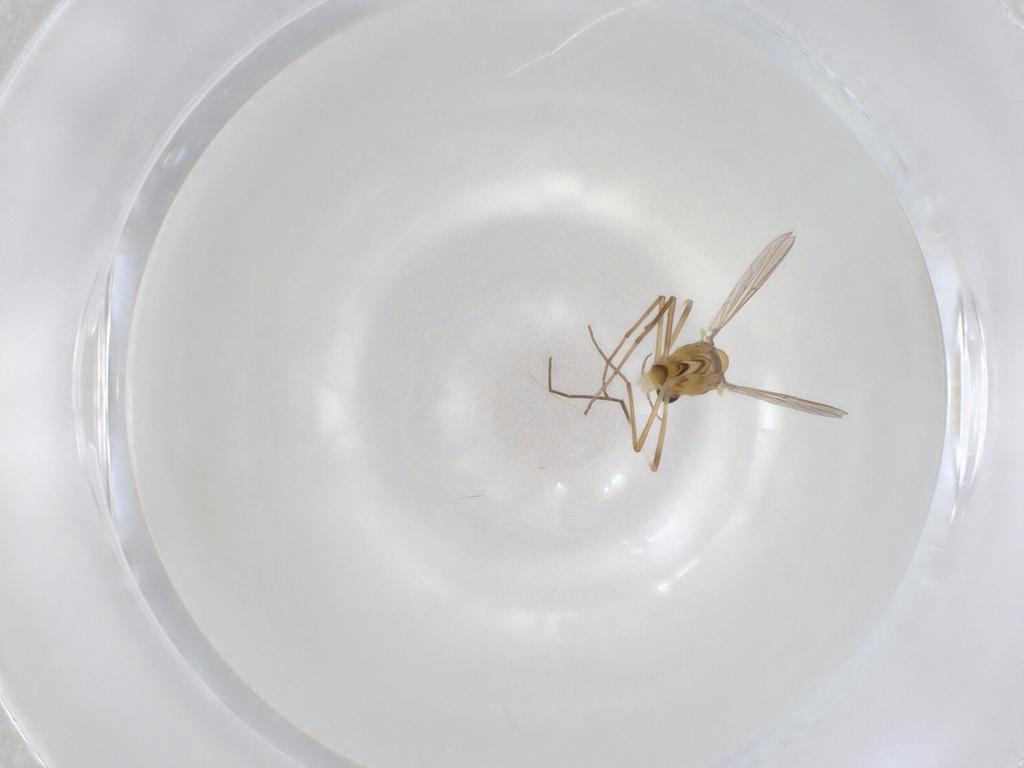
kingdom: Animalia
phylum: Arthropoda
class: Insecta
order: Diptera
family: Chironomidae
